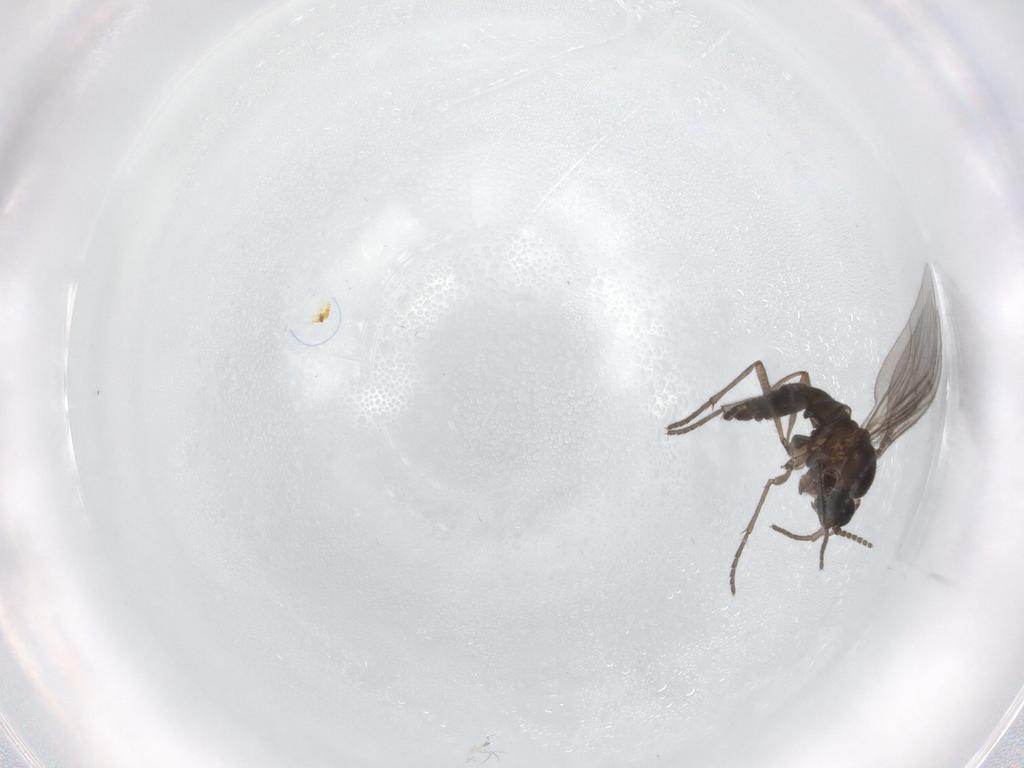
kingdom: Animalia
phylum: Arthropoda
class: Insecta
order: Diptera
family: Sciaridae
